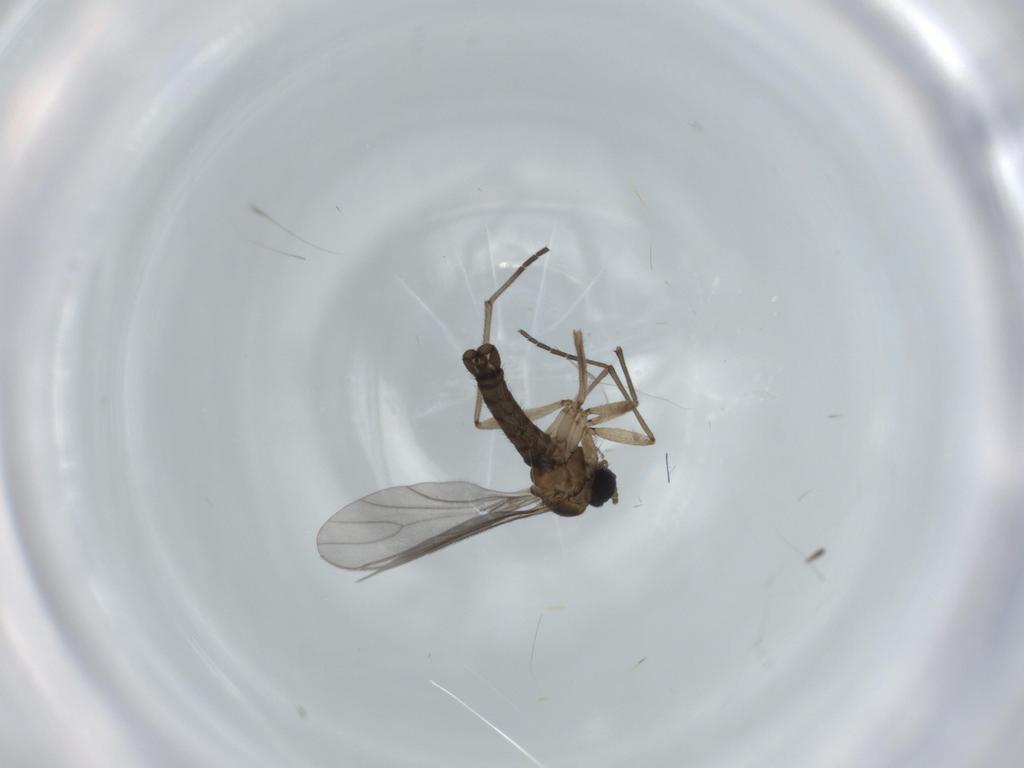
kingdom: Animalia
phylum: Arthropoda
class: Insecta
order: Diptera
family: Sciaridae
